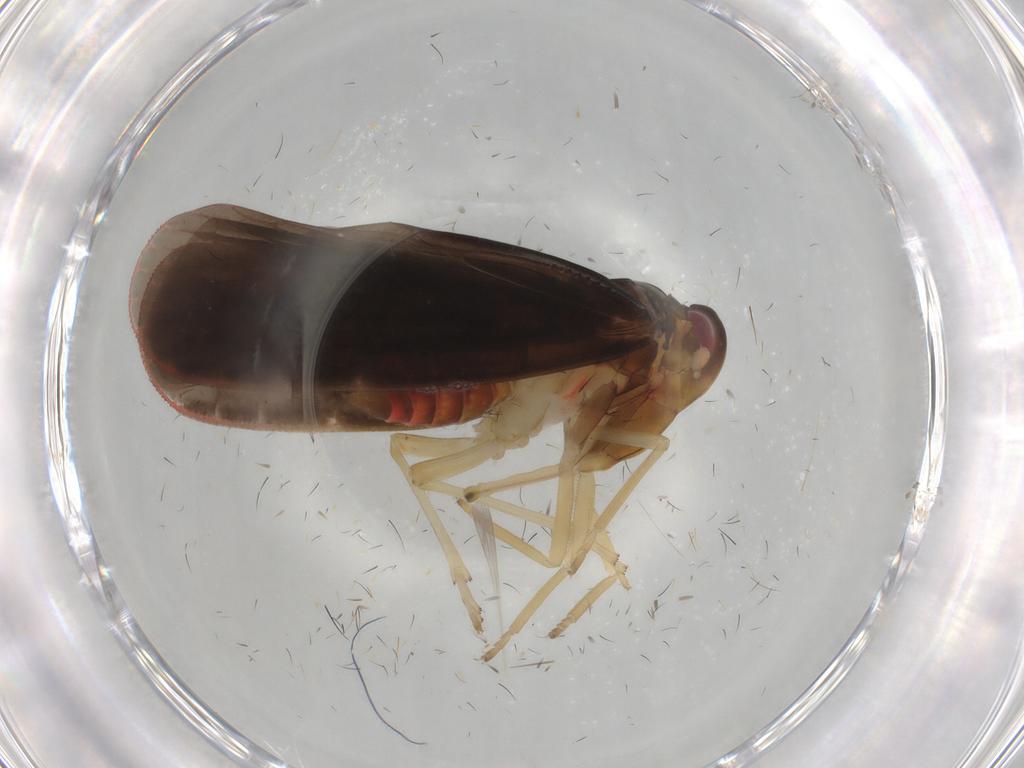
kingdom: Animalia
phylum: Arthropoda
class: Insecta
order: Hemiptera
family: Derbidae
